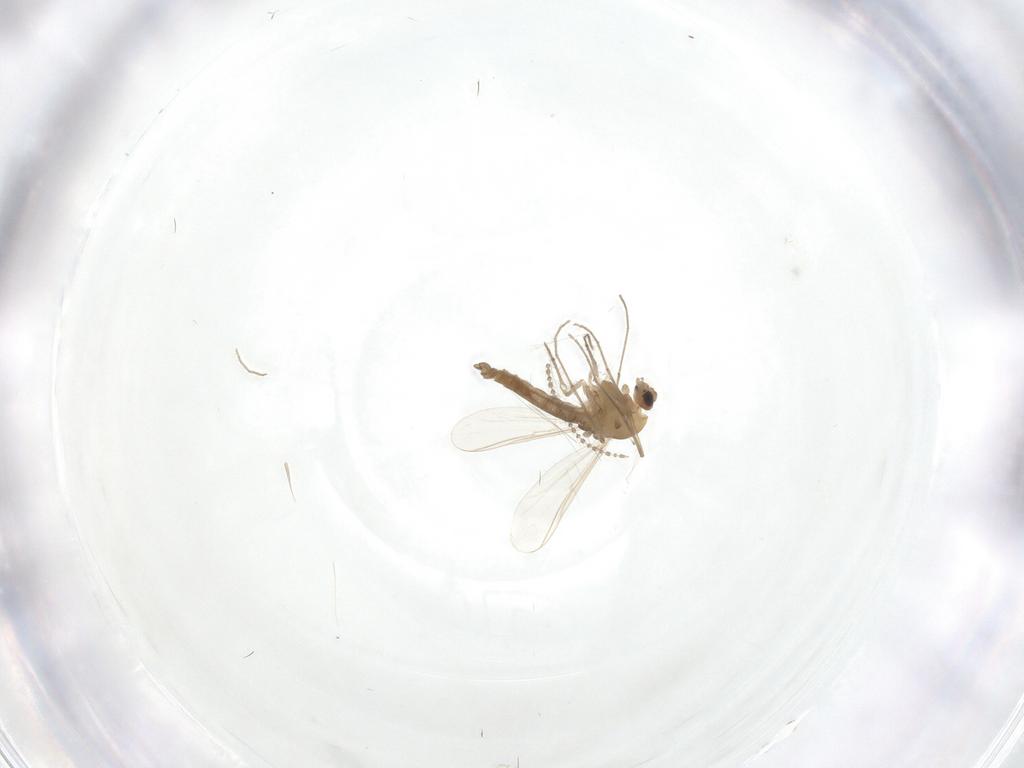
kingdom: Animalia
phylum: Arthropoda
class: Insecta
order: Diptera
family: Chironomidae
